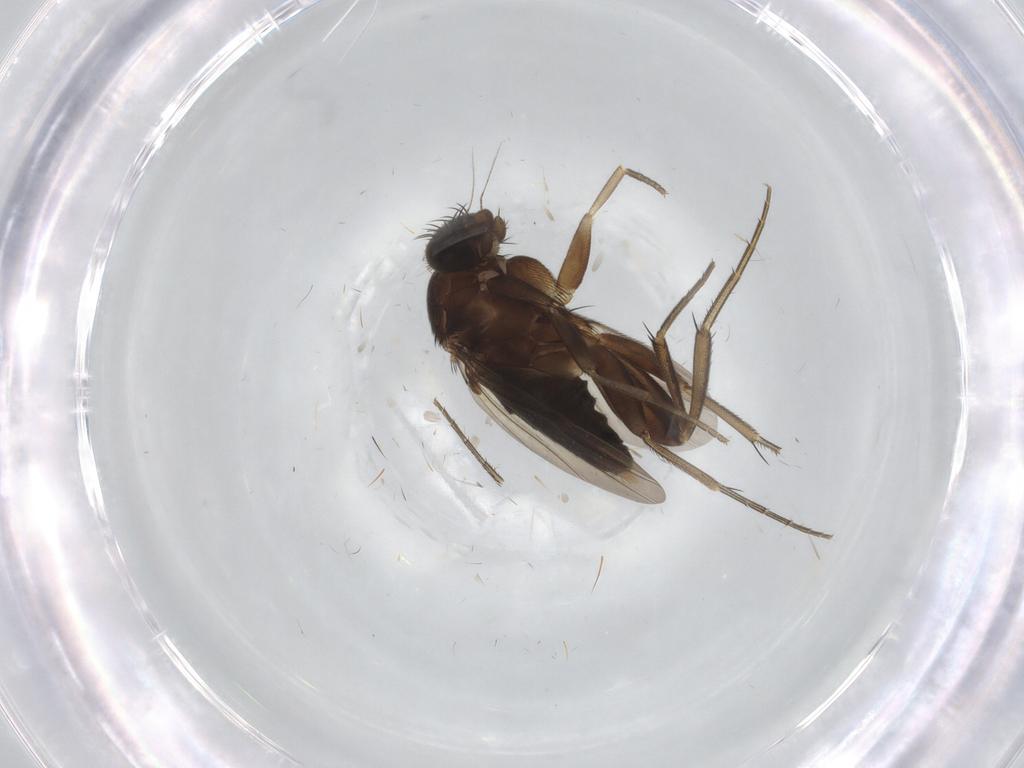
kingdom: Animalia
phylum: Arthropoda
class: Insecta
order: Diptera
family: Phoridae
